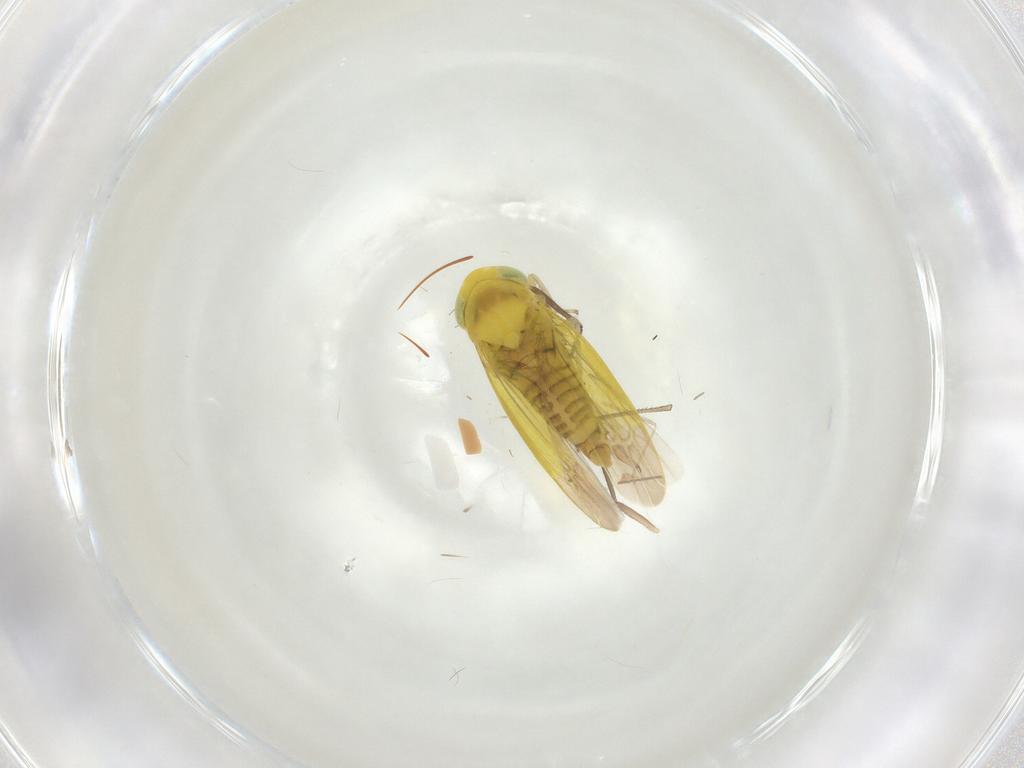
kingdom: Animalia
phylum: Arthropoda
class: Insecta
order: Hemiptera
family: Cicadellidae
